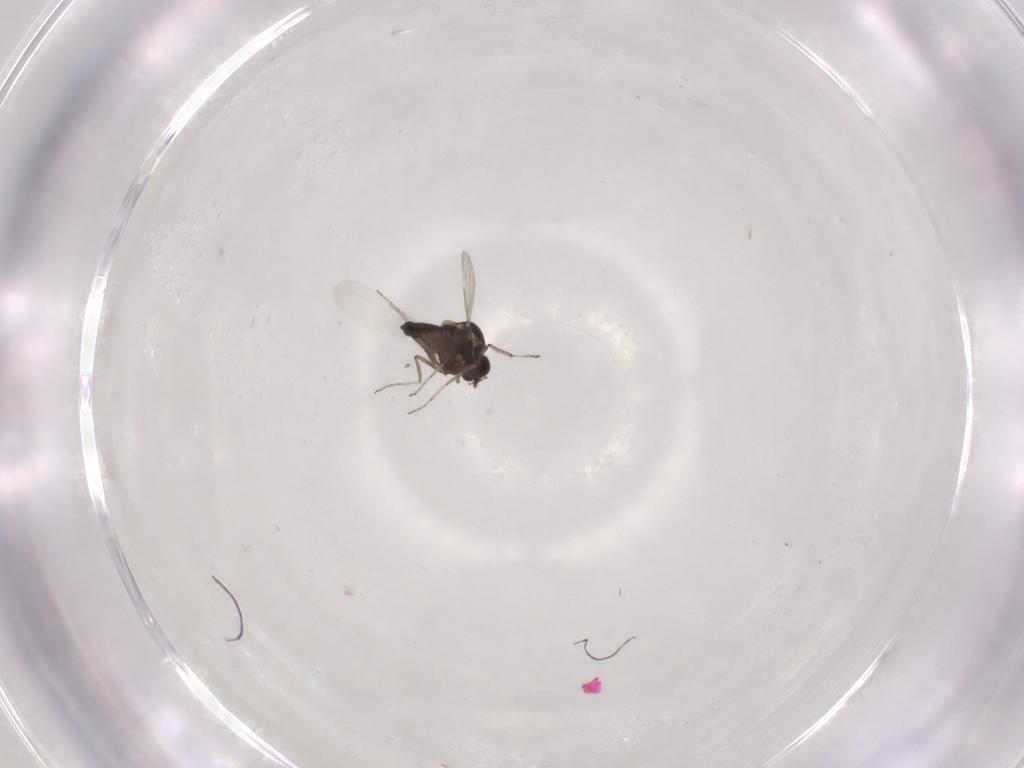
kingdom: Animalia
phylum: Arthropoda
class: Insecta
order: Diptera
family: Ceratopogonidae
